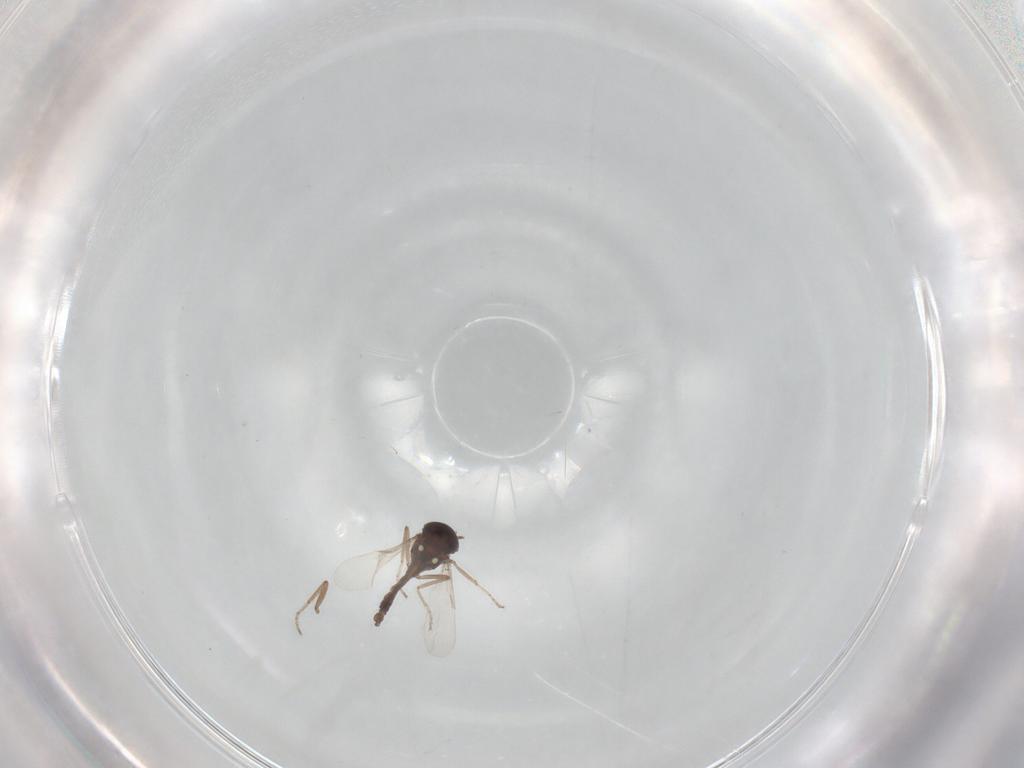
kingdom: Animalia
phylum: Arthropoda
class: Insecta
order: Diptera
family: Ceratopogonidae
